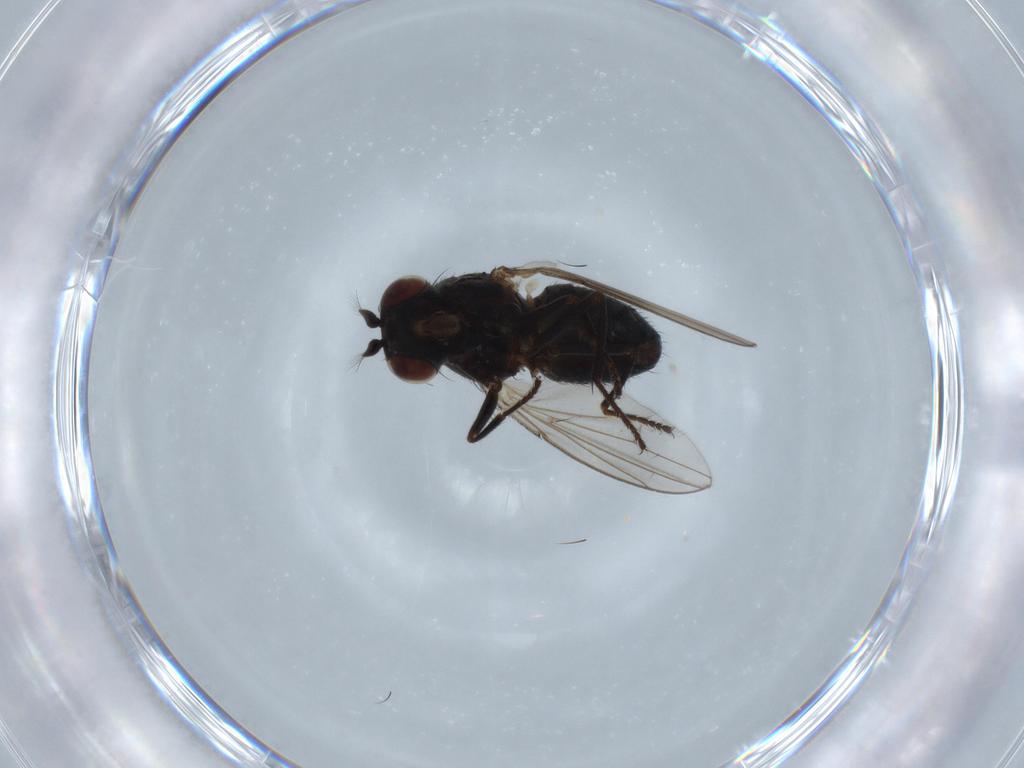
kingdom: Animalia
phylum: Arthropoda
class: Insecta
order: Diptera
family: Ephydridae
